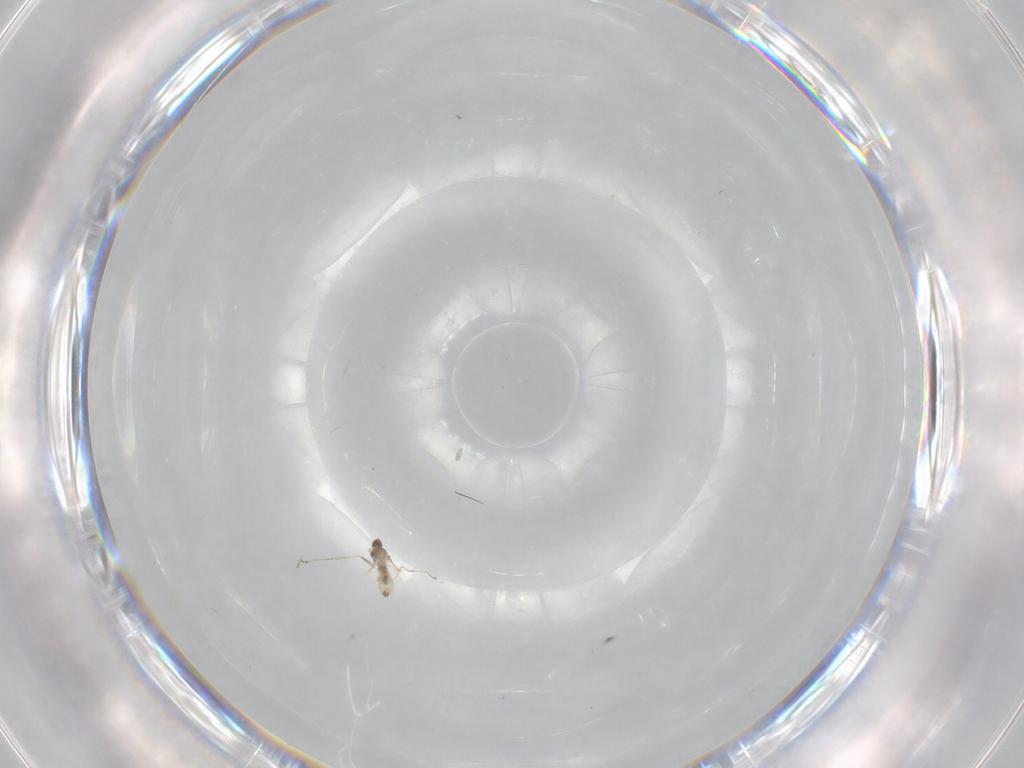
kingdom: Animalia
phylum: Arthropoda
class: Insecta
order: Diptera
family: Cecidomyiidae
